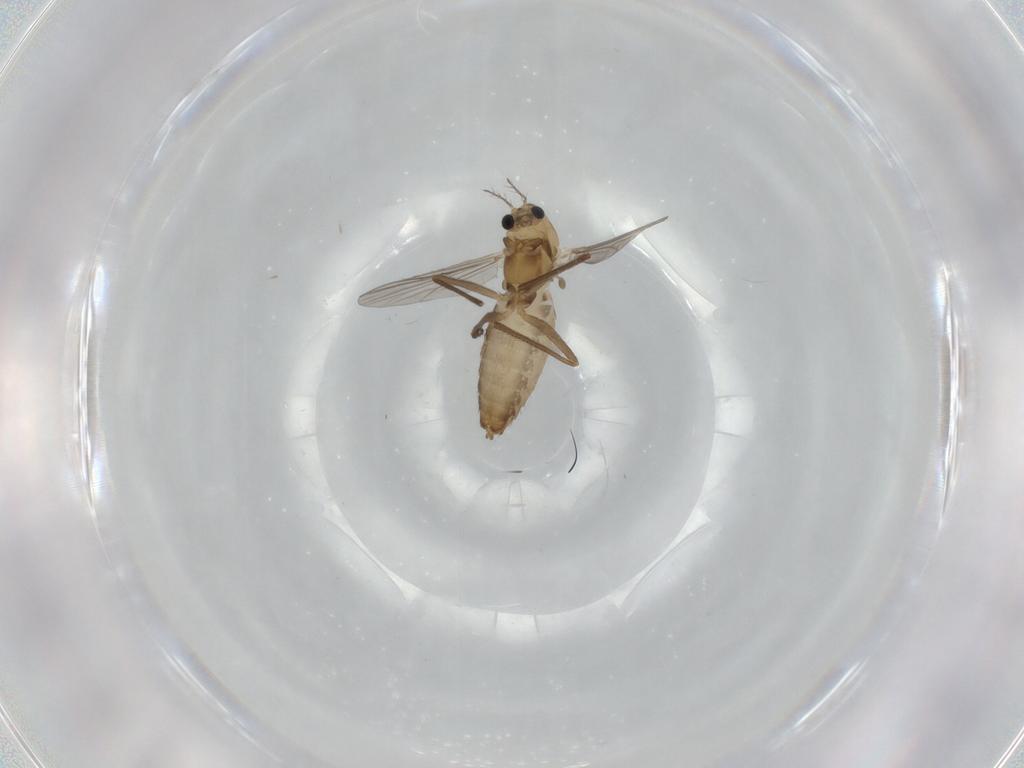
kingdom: Animalia
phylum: Arthropoda
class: Insecta
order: Diptera
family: Chironomidae
